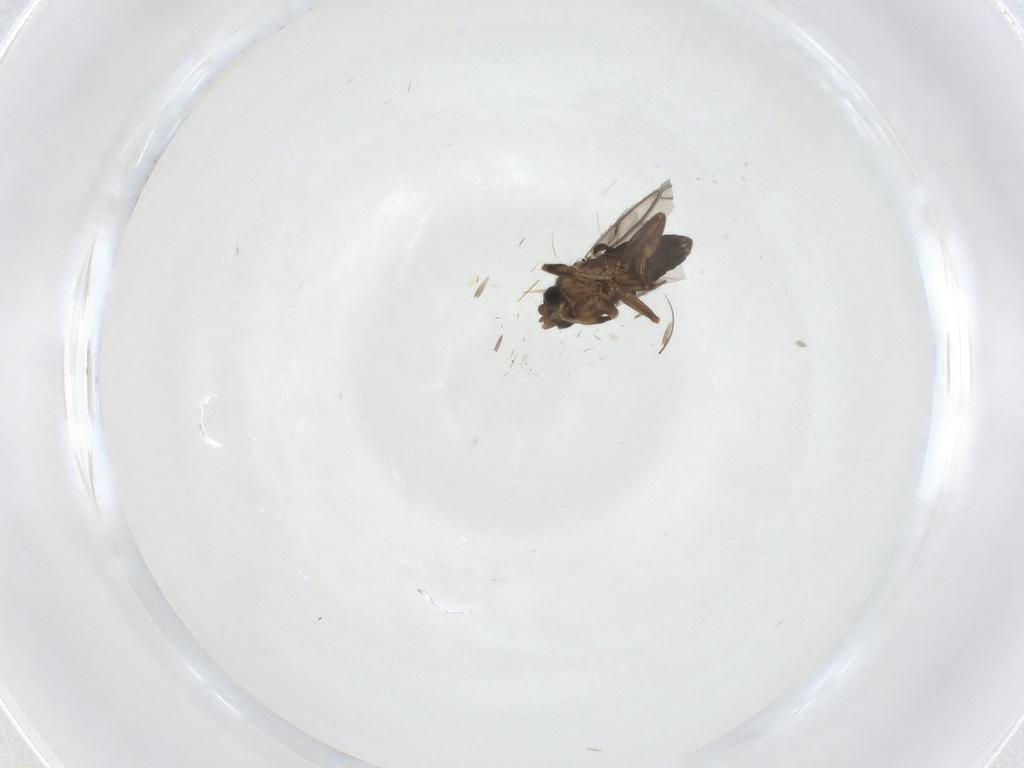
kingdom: Animalia
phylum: Arthropoda
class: Insecta
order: Diptera
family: Phoridae
